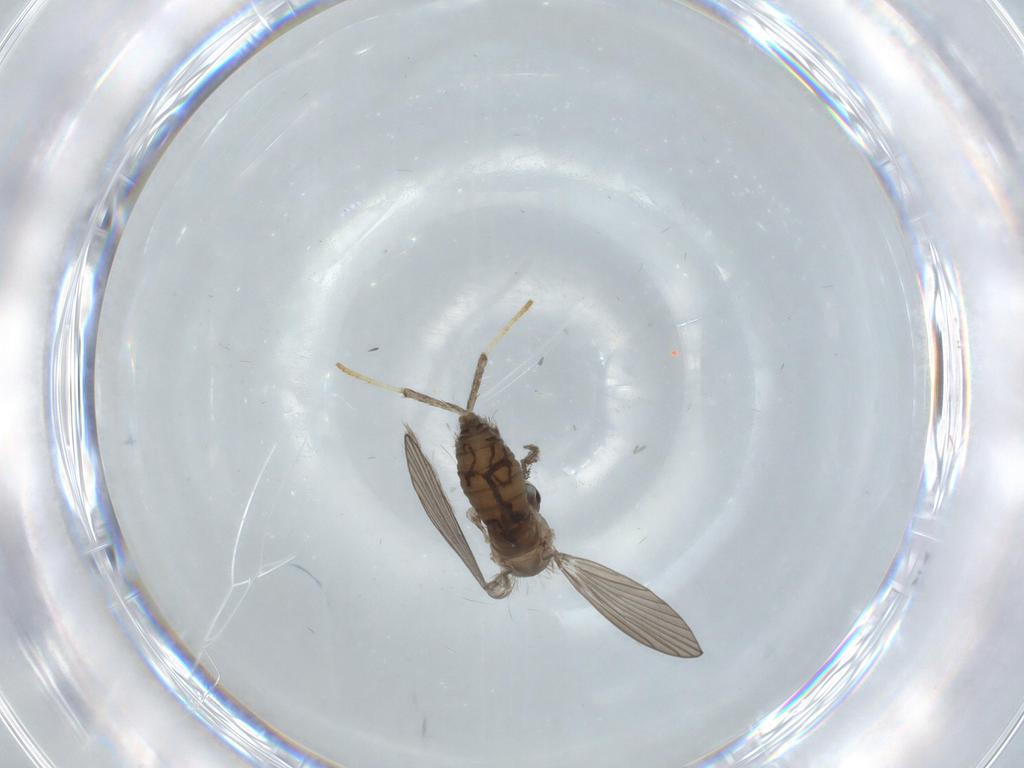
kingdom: Animalia
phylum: Arthropoda
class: Insecta
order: Diptera
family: Psychodidae
